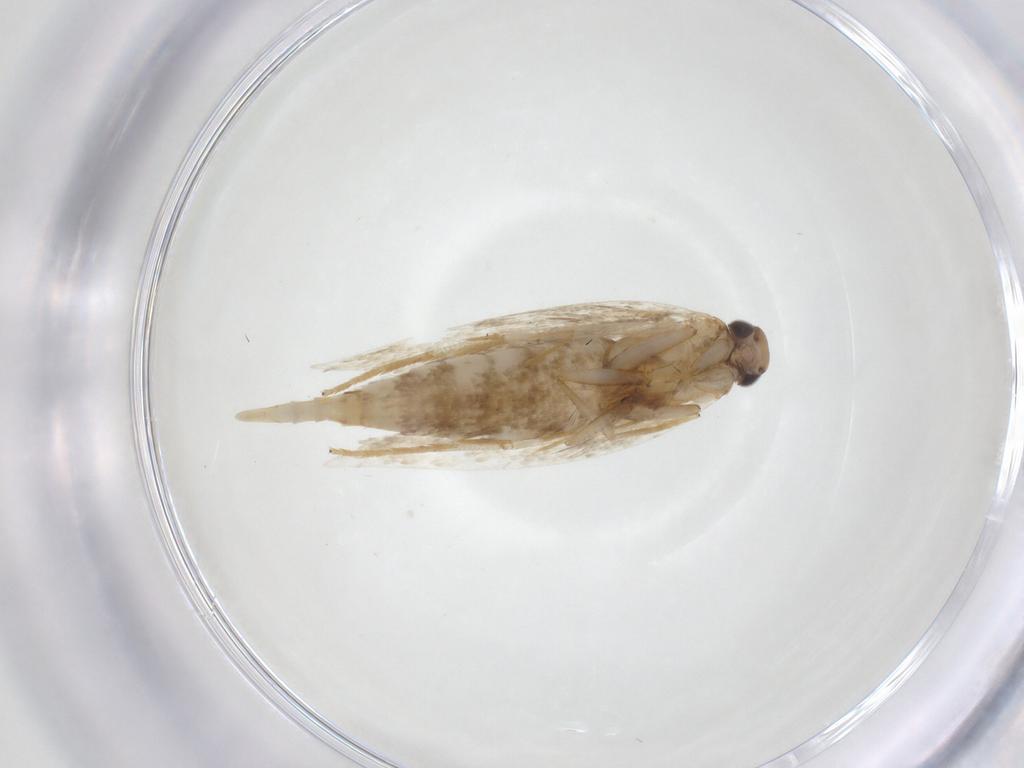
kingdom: Animalia
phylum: Arthropoda
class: Insecta
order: Lepidoptera
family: Gelechiidae
